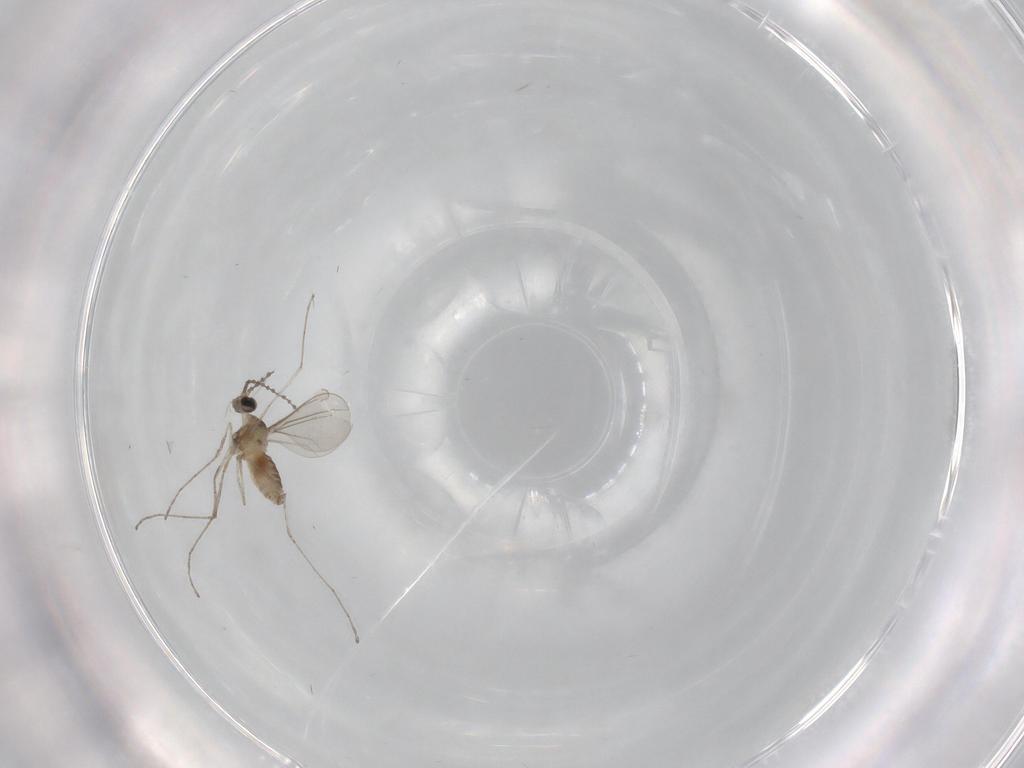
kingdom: Animalia
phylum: Arthropoda
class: Insecta
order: Diptera
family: Cecidomyiidae
